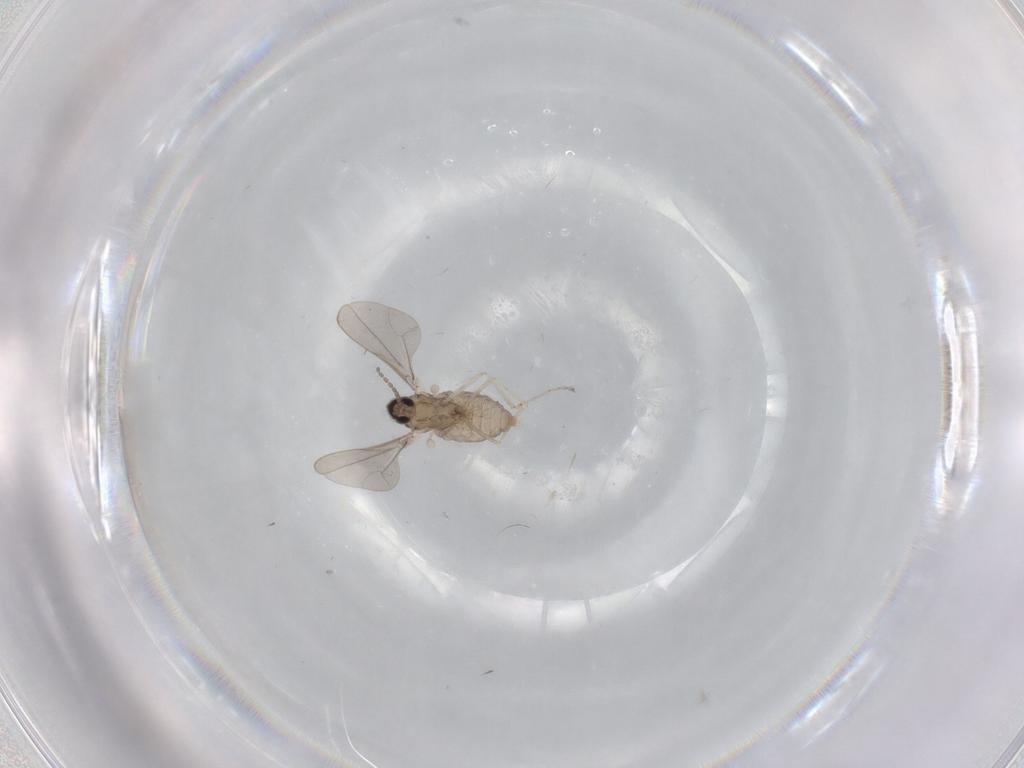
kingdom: Animalia
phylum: Arthropoda
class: Insecta
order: Diptera
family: Cecidomyiidae
